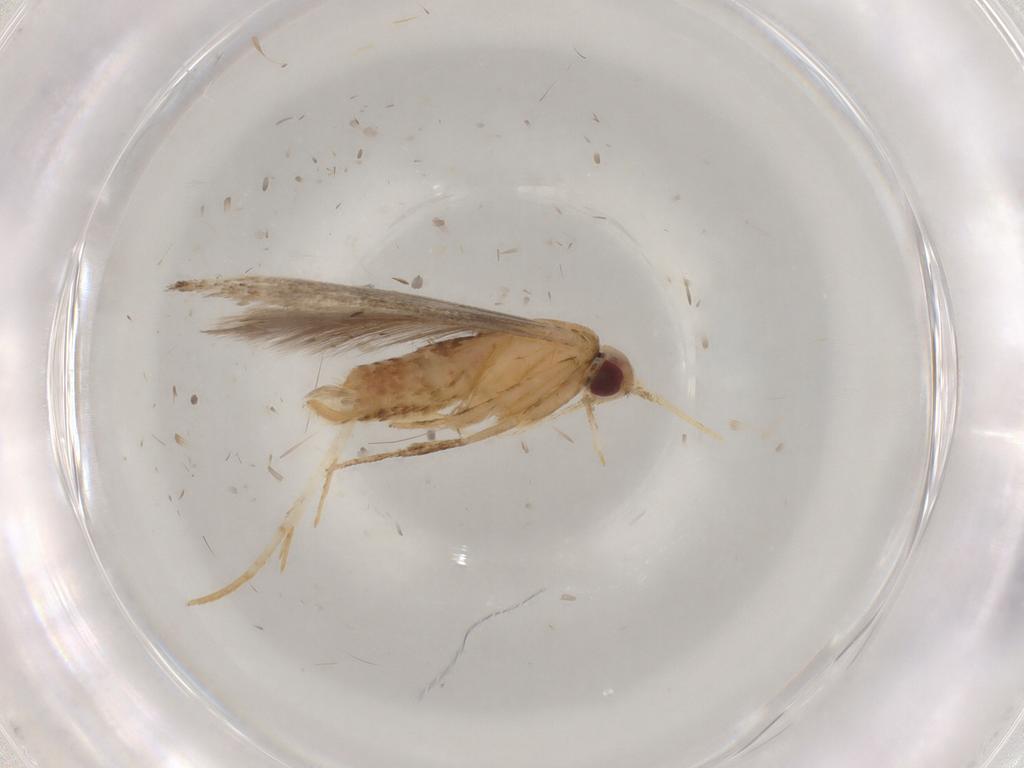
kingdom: Animalia
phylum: Arthropoda
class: Insecta
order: Lepidoptera
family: Cosmopterigidae
